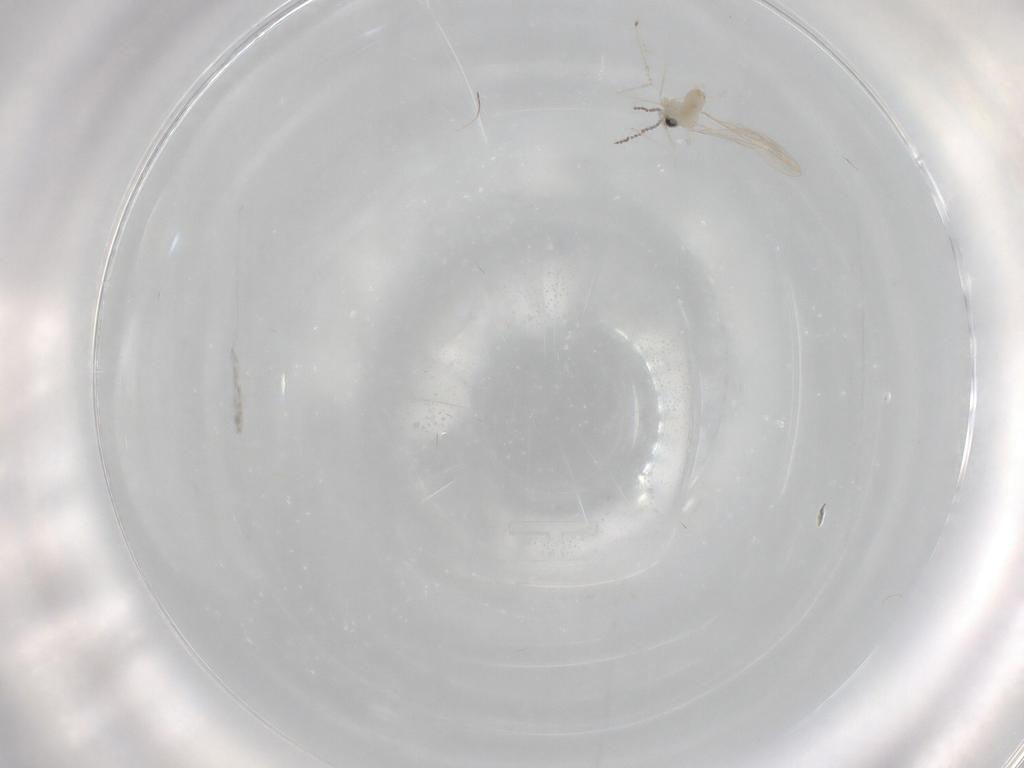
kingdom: Animalia
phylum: Arthropoda
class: Insecta
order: Diptera
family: Cecidomyiidae
